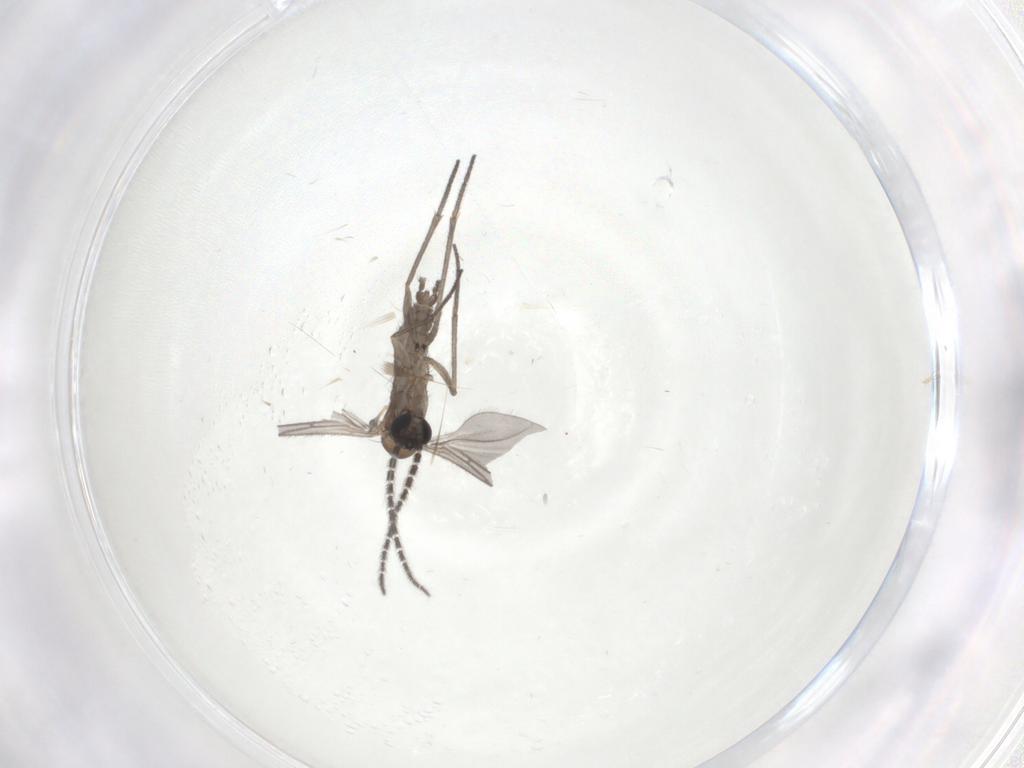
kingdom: Animalia
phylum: Arthropoda
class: Insecta
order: Diptera
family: Sciaridae
